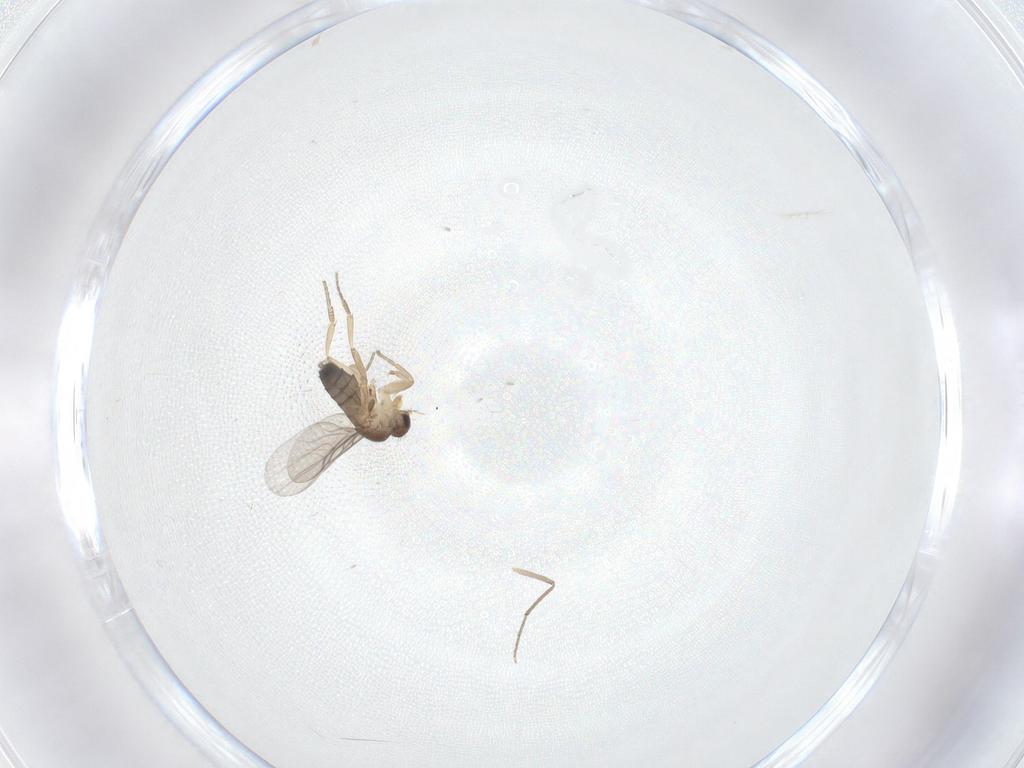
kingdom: Animalia
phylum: Arthropoda
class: Insecta
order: Diptera
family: Phoridae
